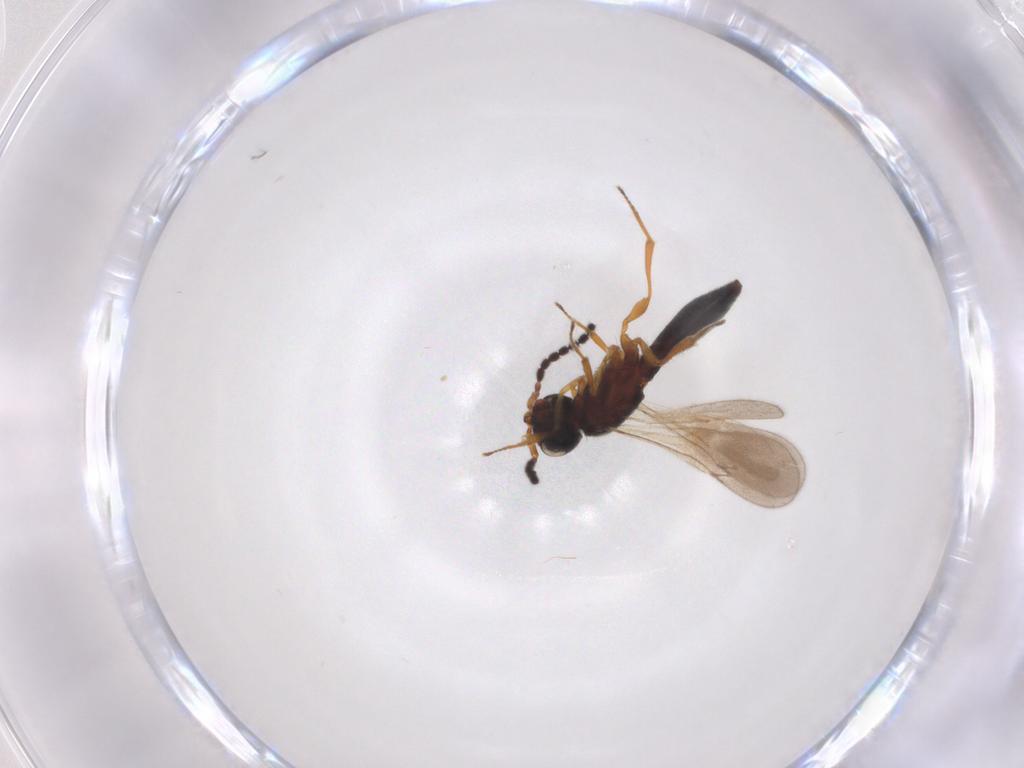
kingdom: Animalia
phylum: Arthropoda
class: Insecta
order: Hymenoptera
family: Scelionidae
